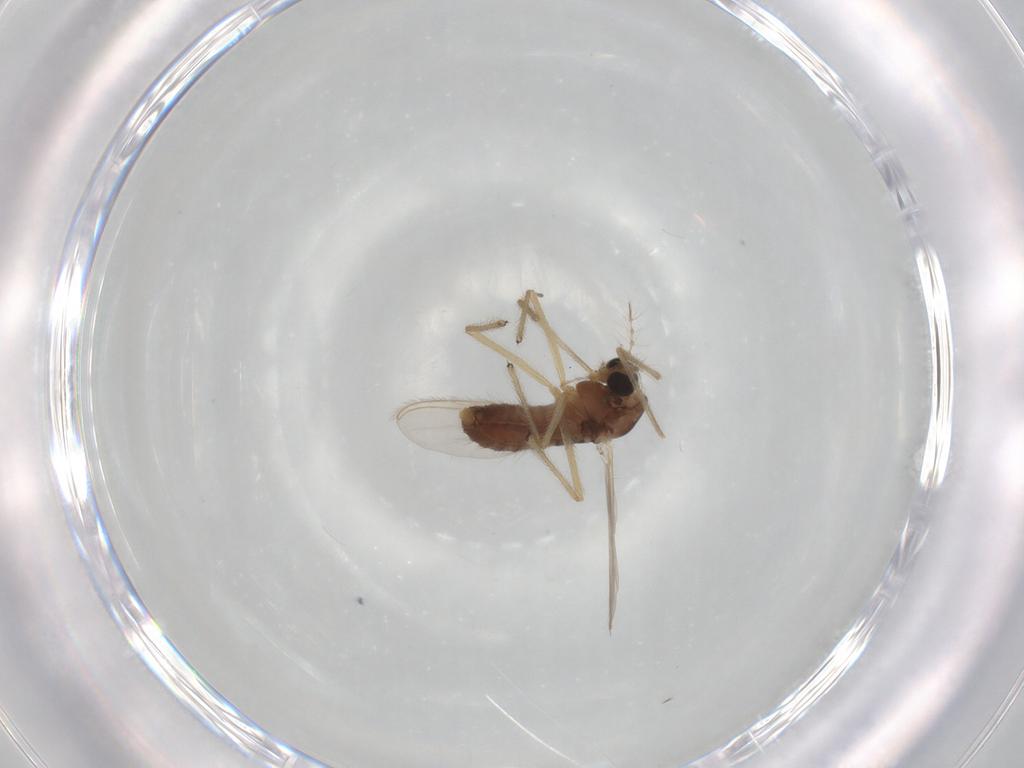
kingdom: Animalia
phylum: Arthropoda
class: Insecta
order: Diptera
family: Chironomidae
